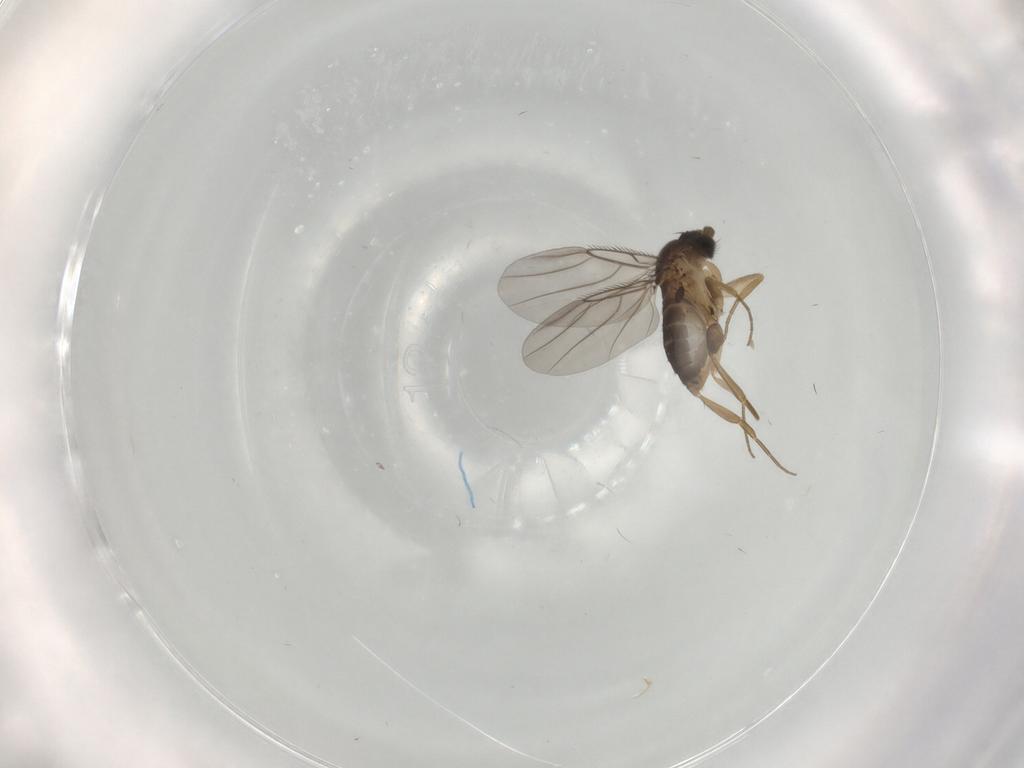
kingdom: Animalia
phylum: Arthropoda
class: Insecta
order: Diptera
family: Phoridae
